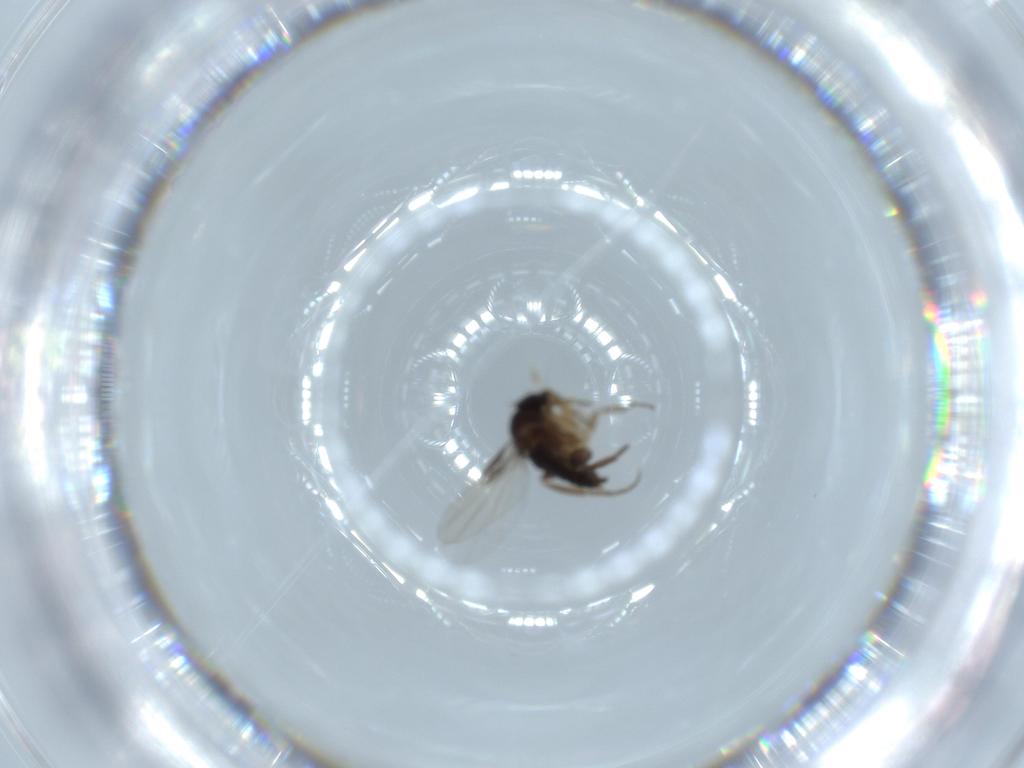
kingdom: Animalia
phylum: Arthropoda
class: Insecta
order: Diptera
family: Phoridae
